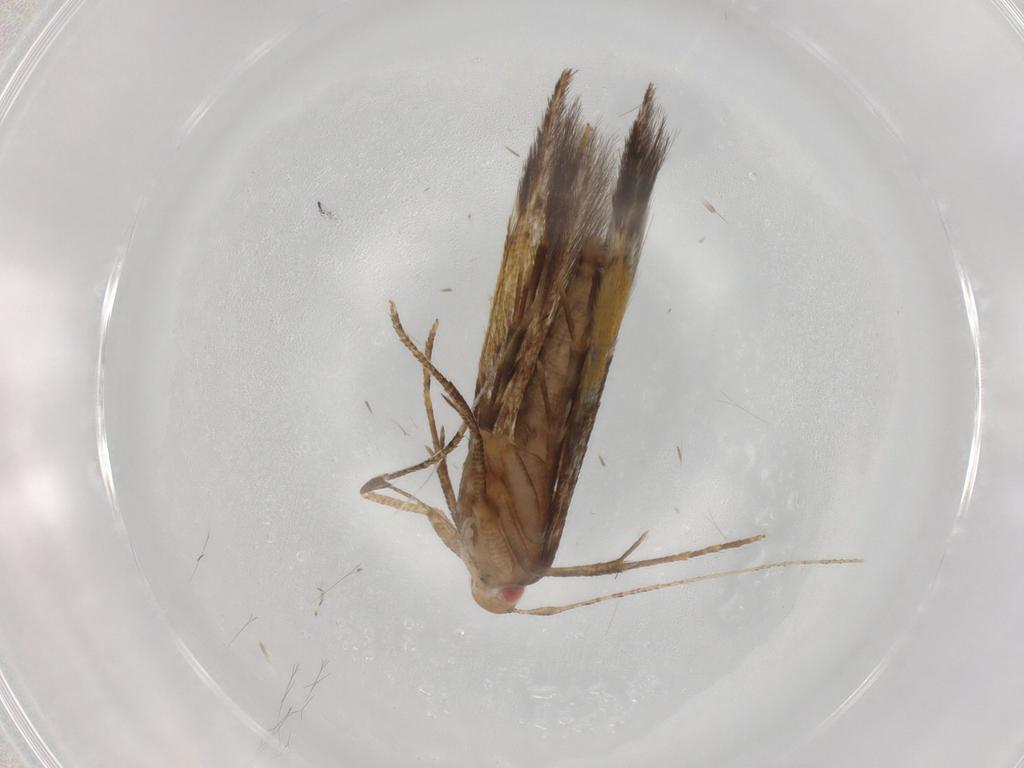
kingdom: Animalia
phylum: Arthropoda
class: Insecta
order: Lepidoptera
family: Cosmopterigidae
